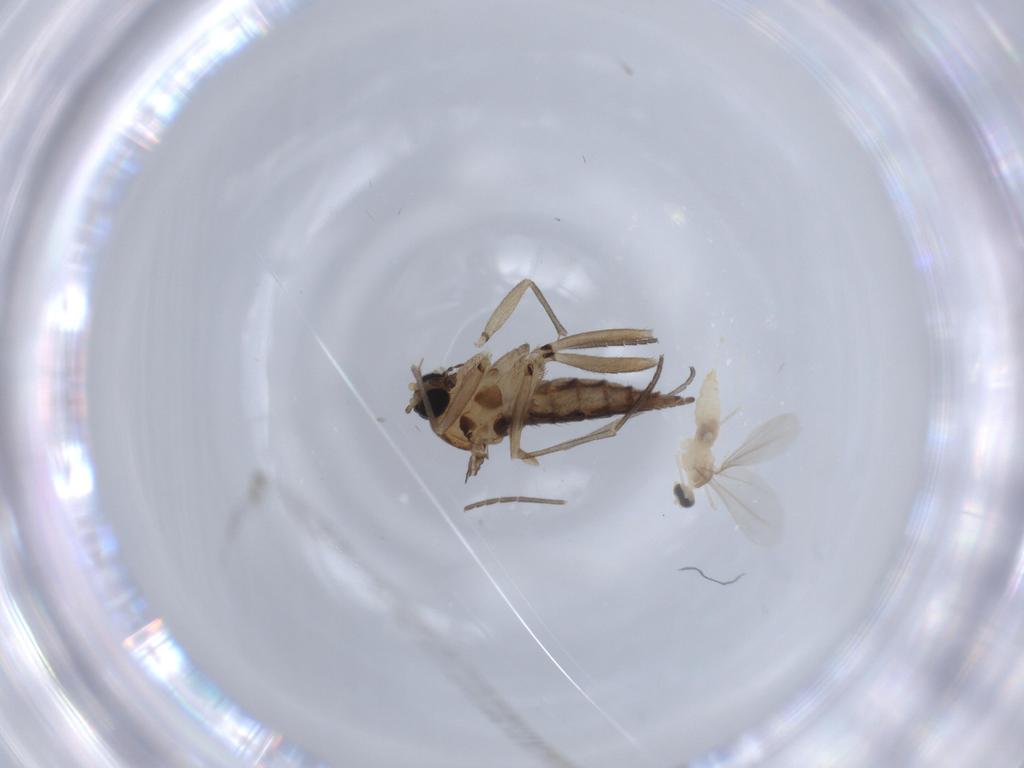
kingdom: Animalia
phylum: Arthropoda
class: Insecta
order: Diptera
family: Sciaridae
